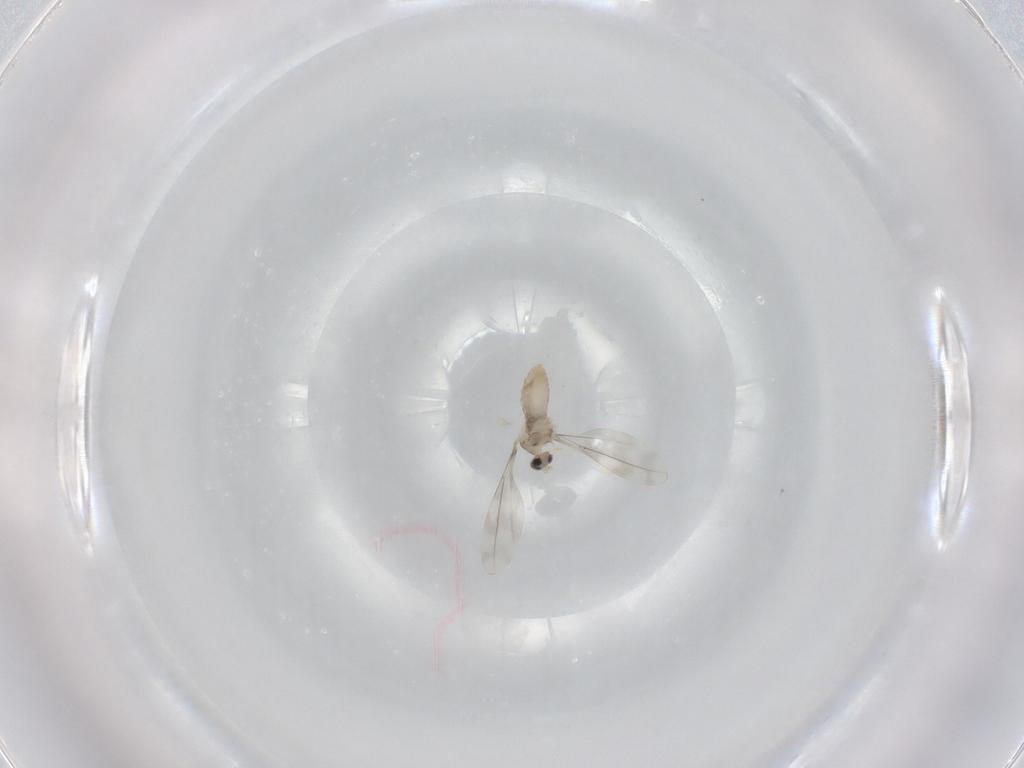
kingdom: Animalia
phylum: Arthropoda
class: Insecta
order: Diptera
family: Cecidomyiidae
